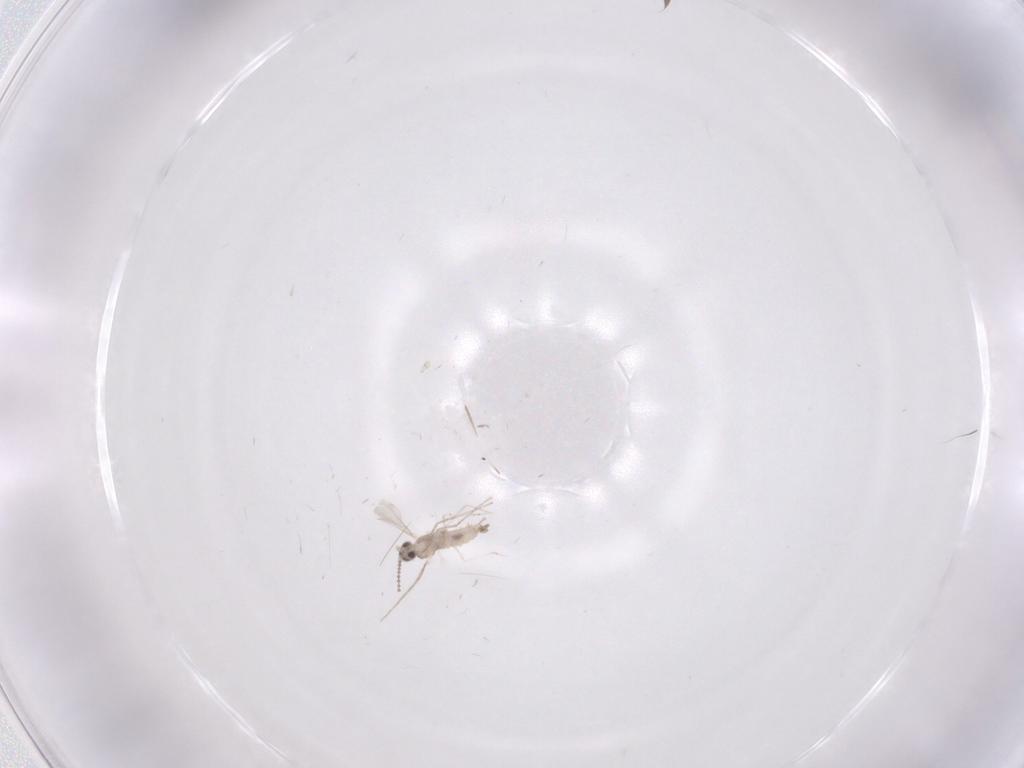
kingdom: Animalia
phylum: Arthropoda
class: Insecta
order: Diptera
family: Cecidomyiidae
